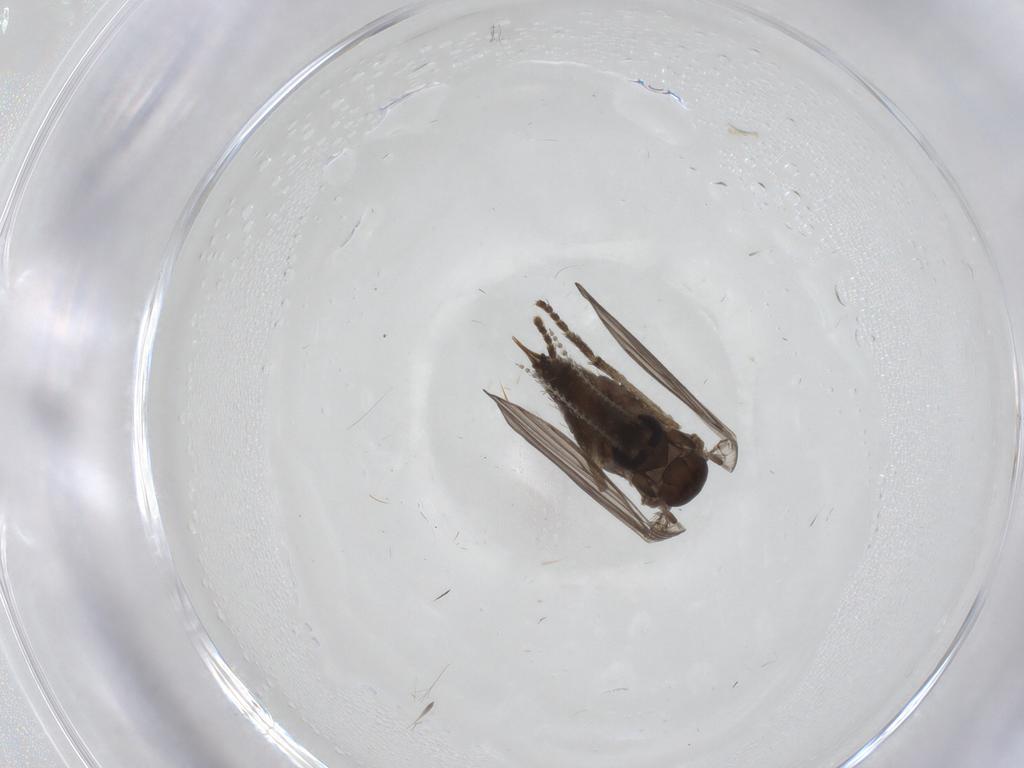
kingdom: Animalia
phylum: Arthropoda
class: Insecta
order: Diptera
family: Psychodidae
